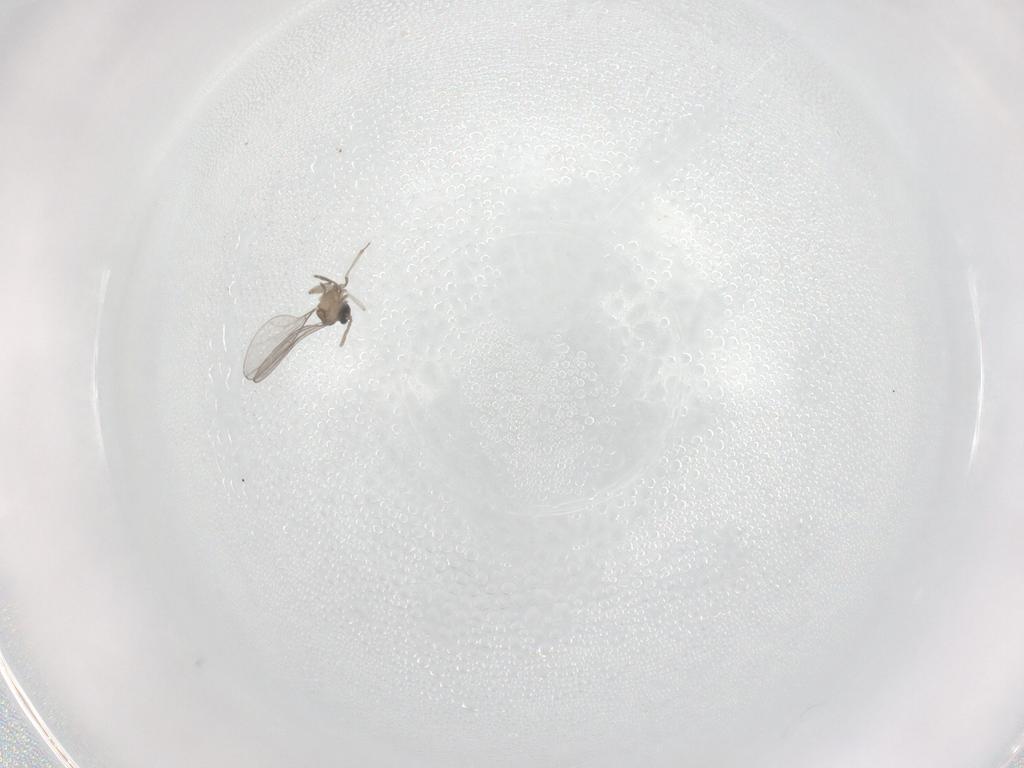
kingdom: Animalia
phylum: Arthropoda
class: Insecta
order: Diptera
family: Cecidomyiidae
